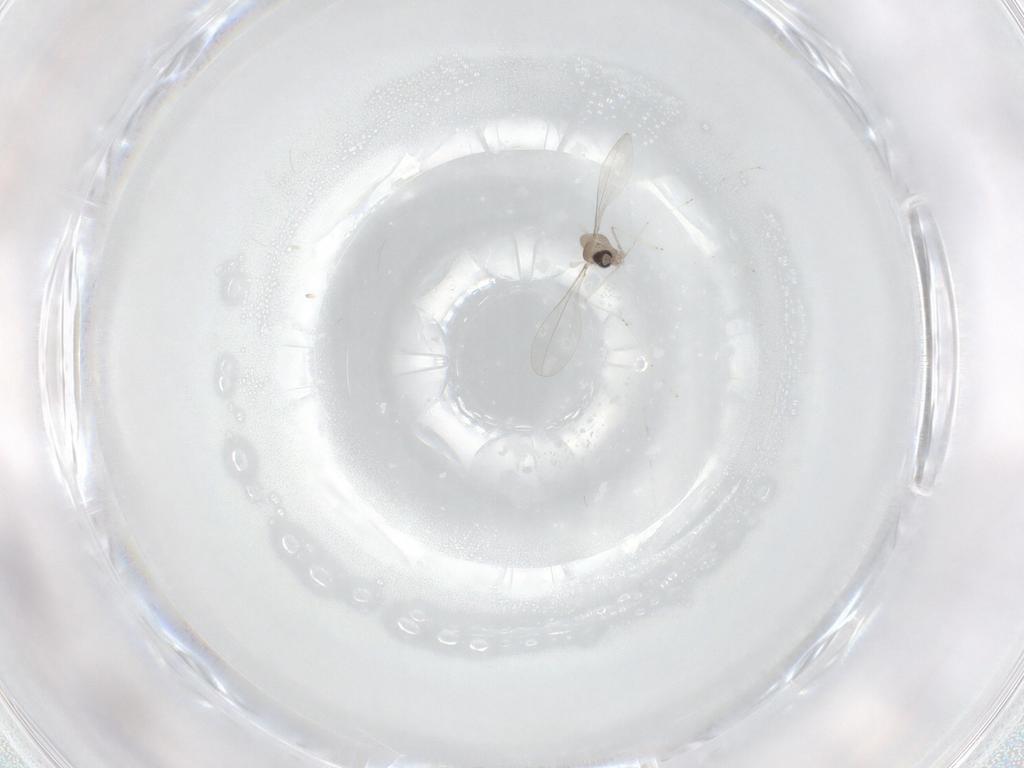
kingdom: Animalia
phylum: Arthropoda
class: Insecta
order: Diptera
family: Cecidomyiidae
